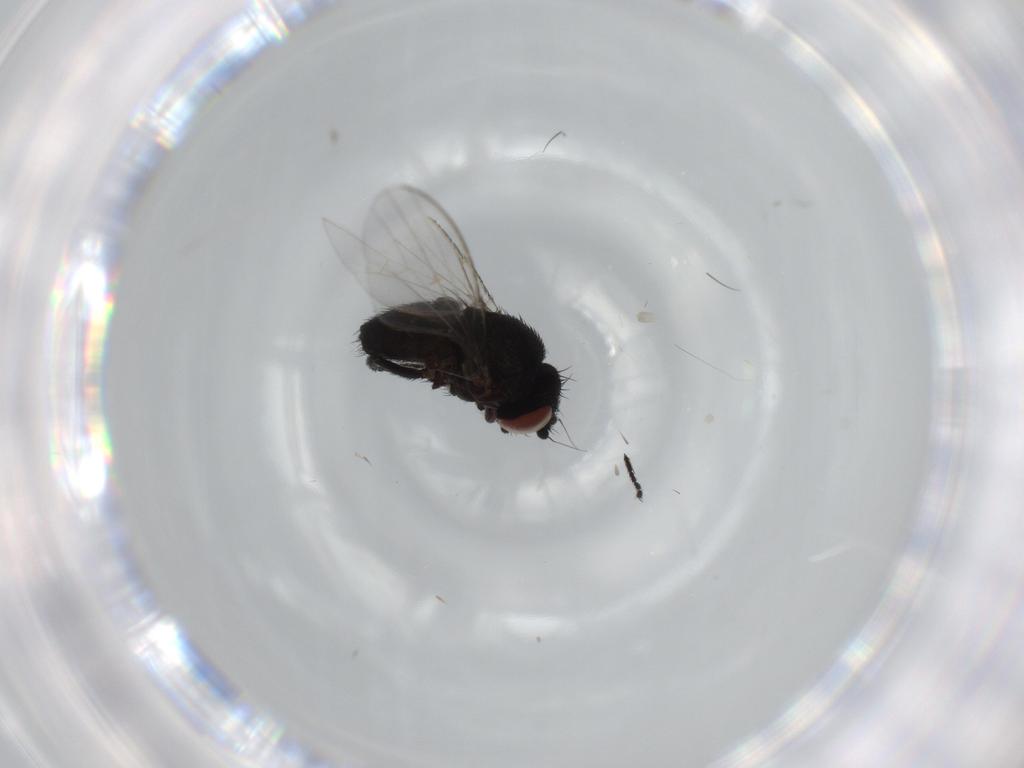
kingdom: Animalia
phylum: Arthropoda
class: Insecta
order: Diptera
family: Milichiidae
